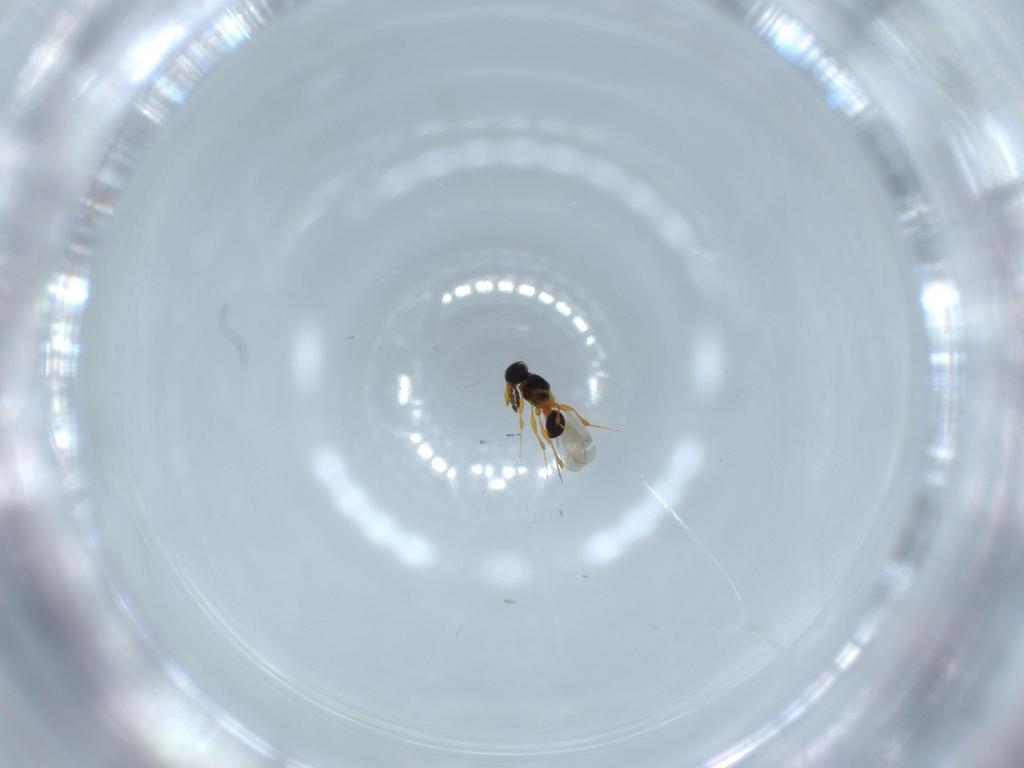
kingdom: Animalia
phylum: Arthropoda
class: Insecta
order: Hymenoptera
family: Platygastridae
